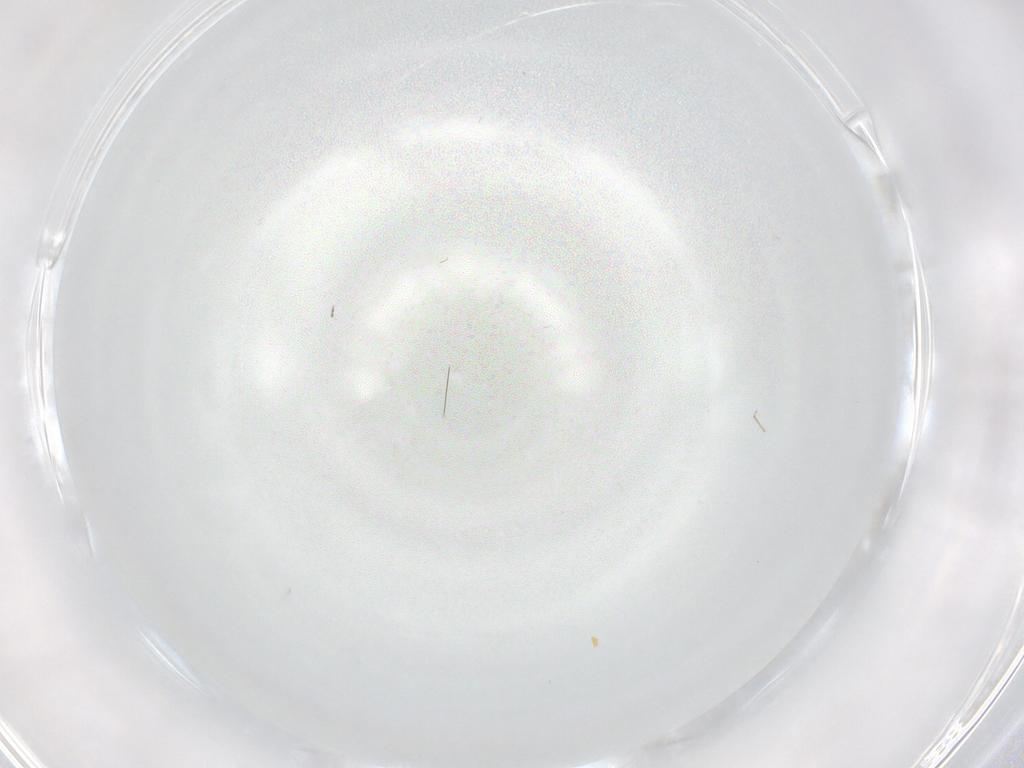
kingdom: Animalia
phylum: Arthropoda
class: Insecta
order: Diptera
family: Cecidomyiidae
